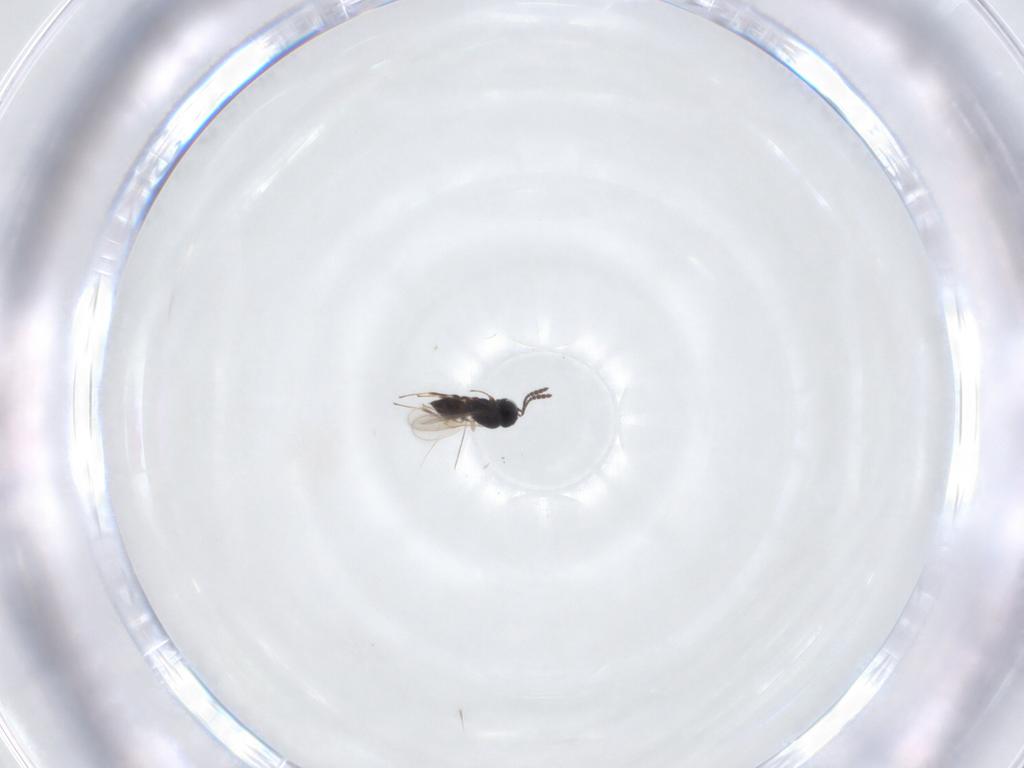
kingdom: Animalia
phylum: Arthropoda
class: Insecta
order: Hymenoptera
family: Scelionidae
